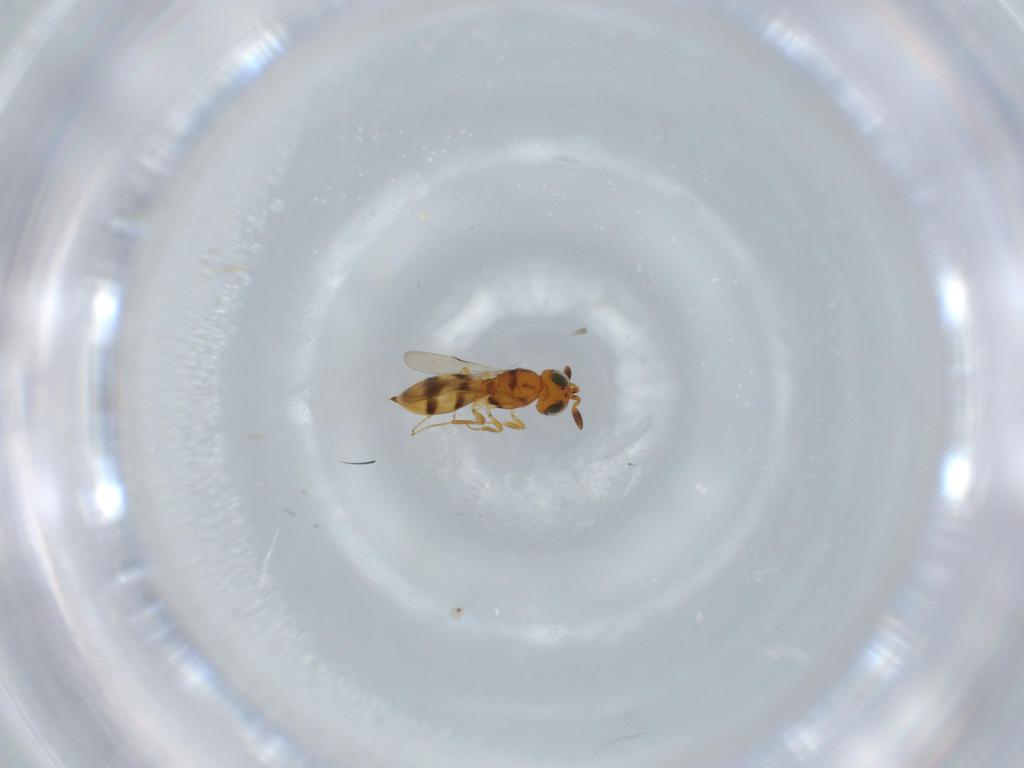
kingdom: Animalia
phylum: Arthropoda
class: Insecta
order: Hymenoptera
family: Scelionidae
